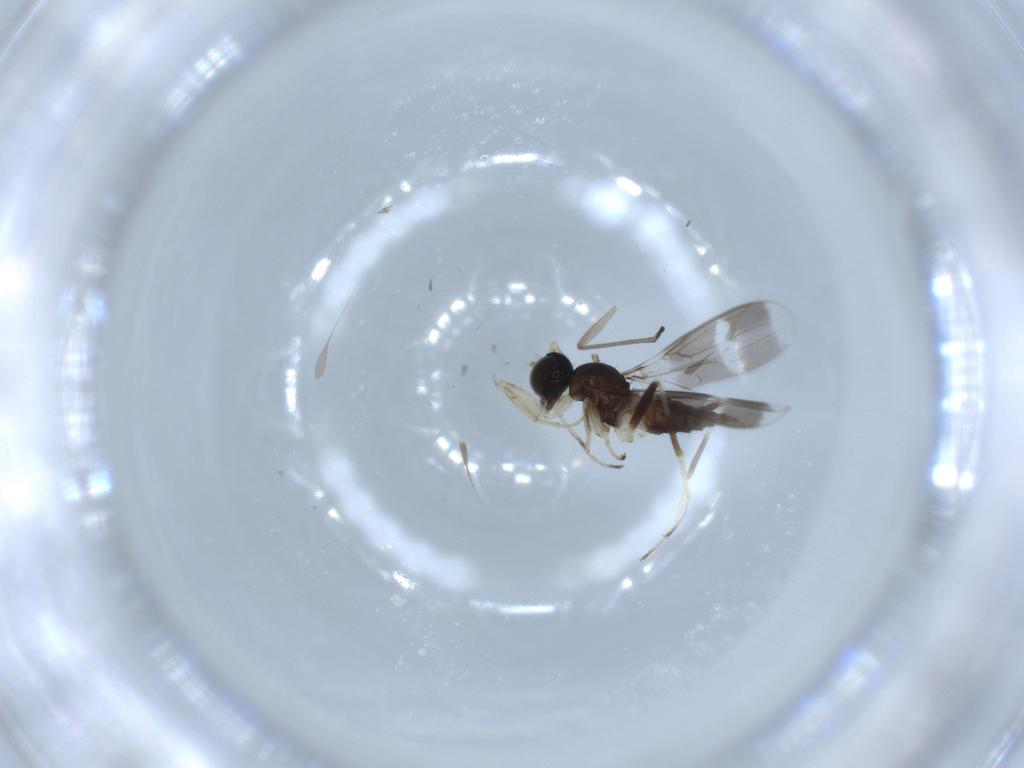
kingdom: Animalia
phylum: Arthropoda
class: Insecta
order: Diptera
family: Hybotidae
